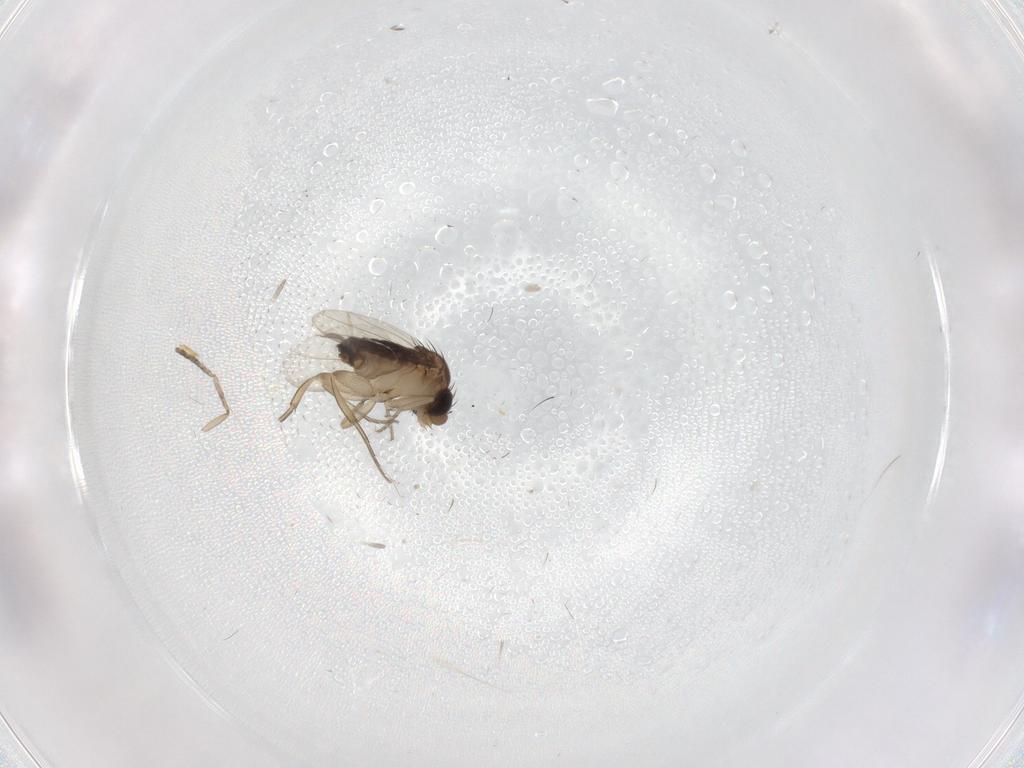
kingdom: Animalia
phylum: Arthropoda
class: Insecta
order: Diptera
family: Phoridae
